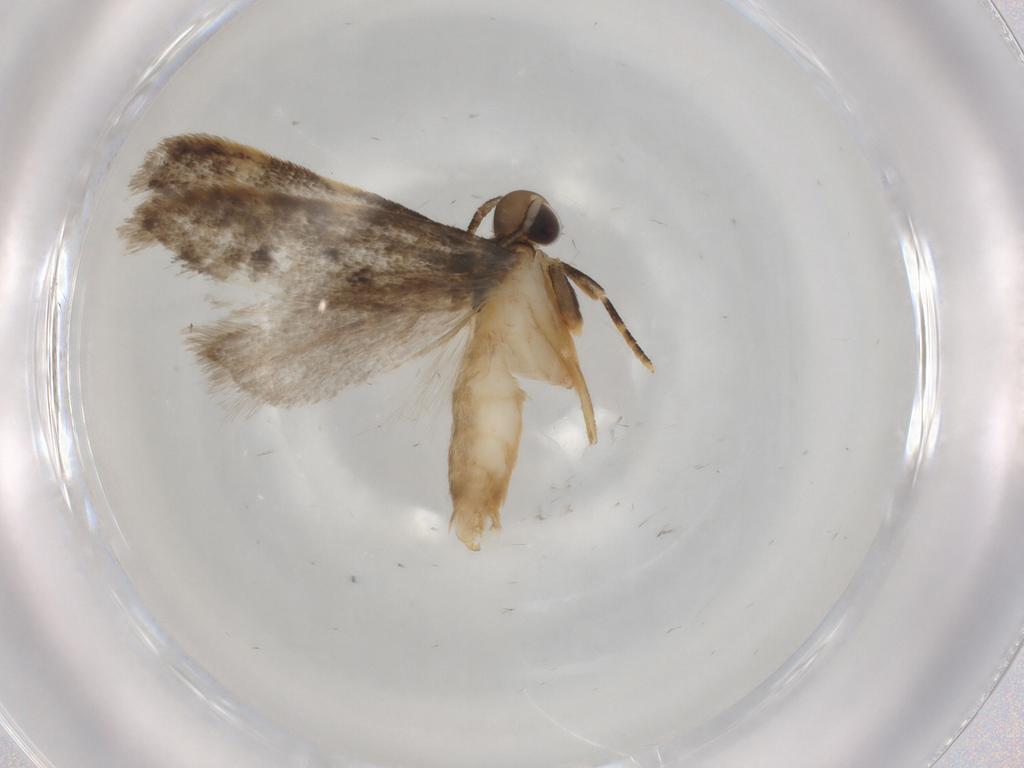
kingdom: Animalia
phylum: Arthropoda
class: Insecta
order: Lepidoptera
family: Autostichidae
